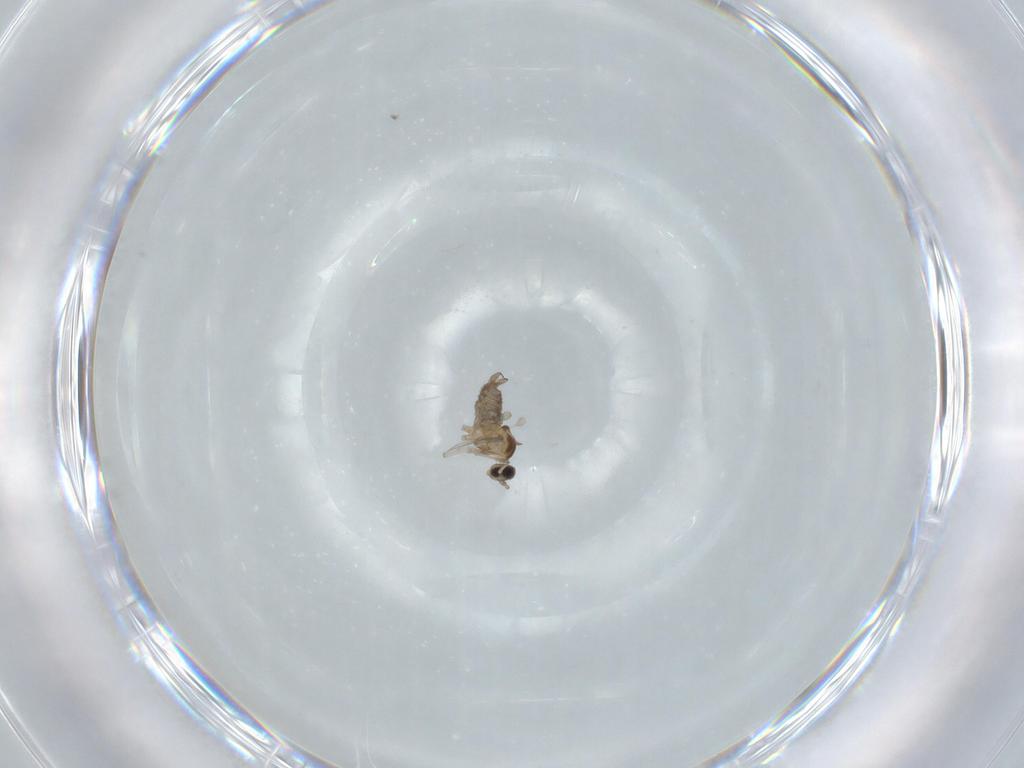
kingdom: Animalia
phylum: Arthropoda
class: Insecta
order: Diptera
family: Cecidomyiidae
